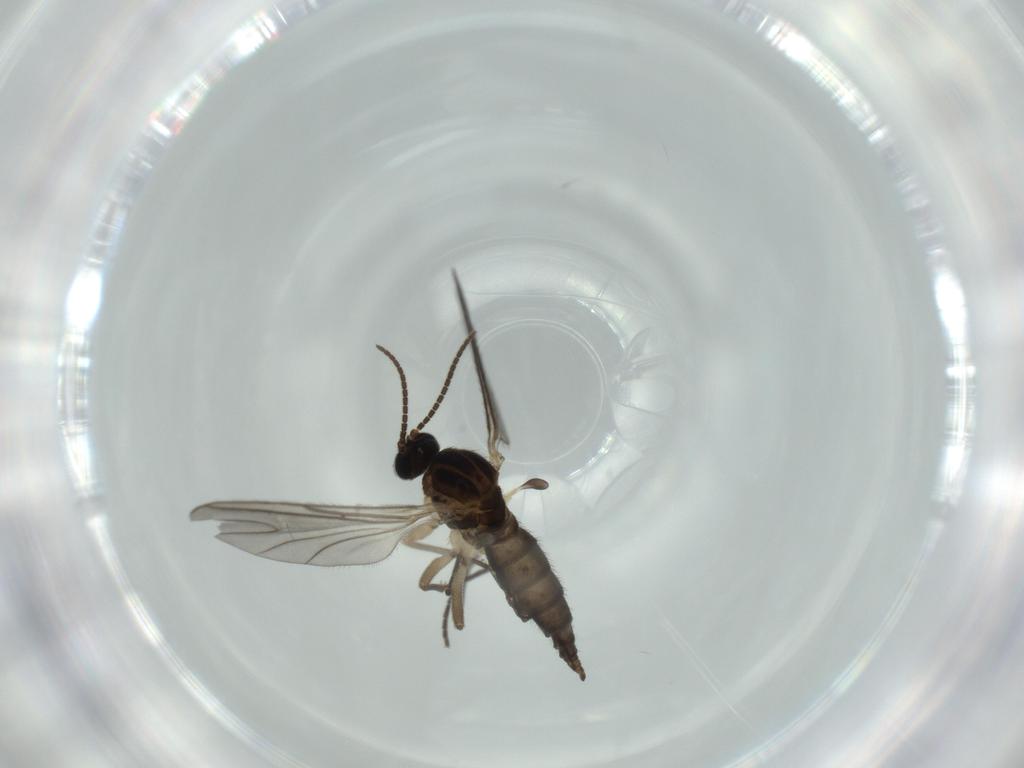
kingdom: Animalia
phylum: Arthropoda
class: Insecta
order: Diptera
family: Sciaridae
